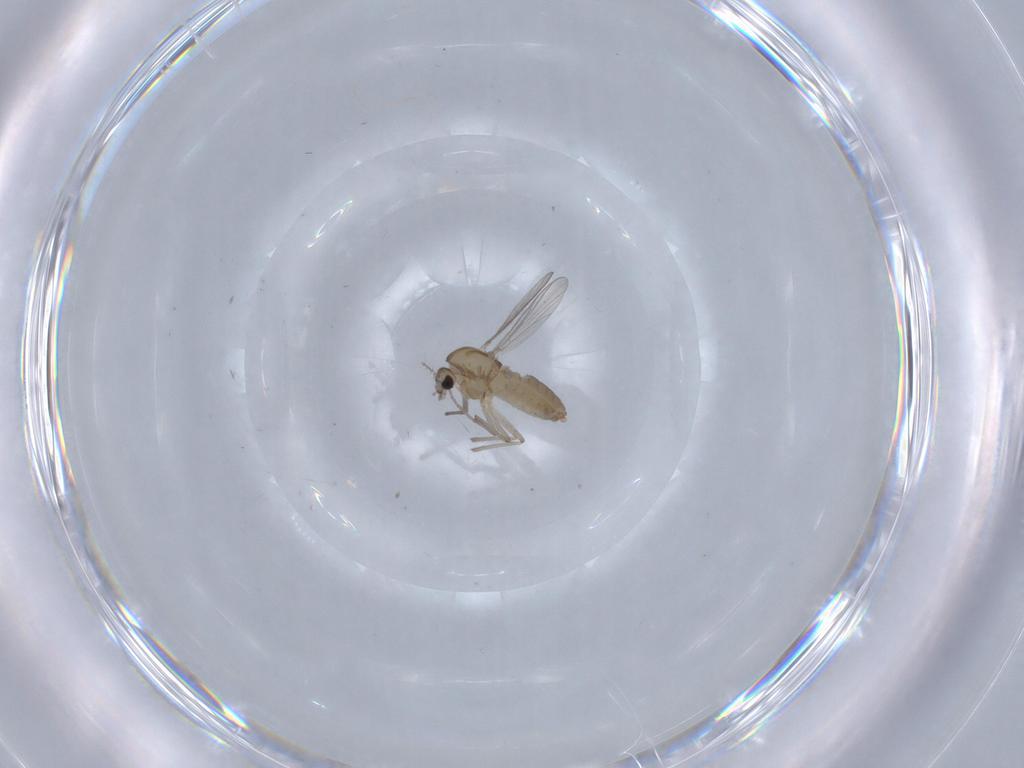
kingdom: Animalia
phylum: Arthropoda
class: Insecta
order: Diptera
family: Chironomidae
